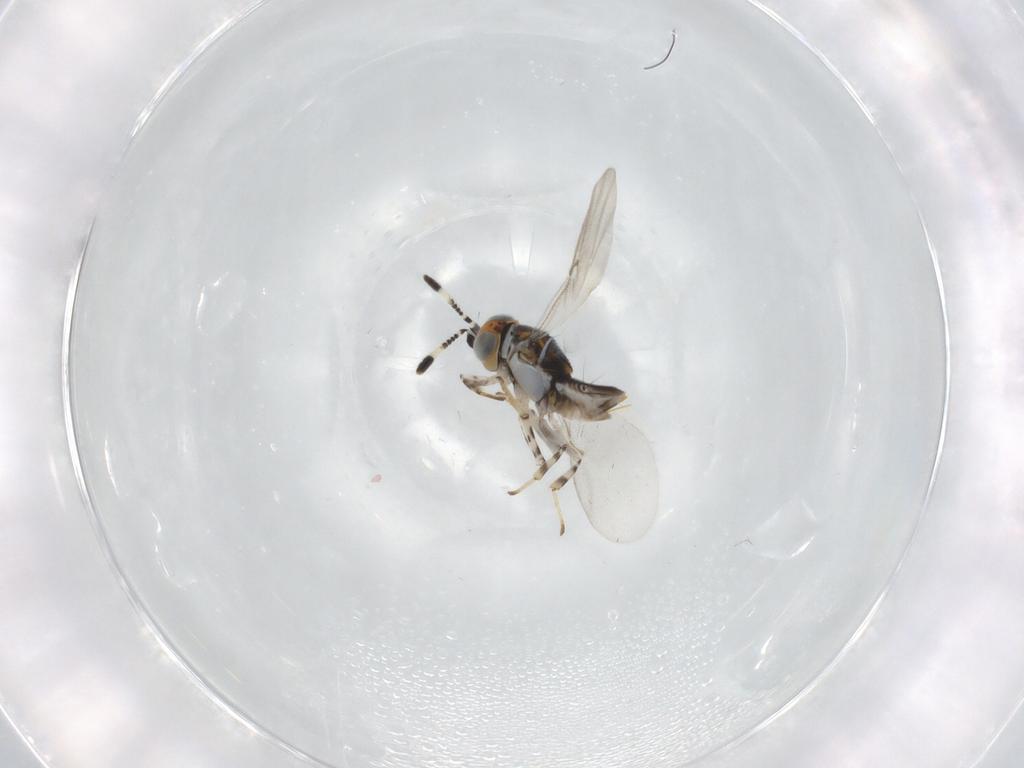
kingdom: Animalia
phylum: Arthropoda
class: Insecta
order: Hymenoptera
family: Encyrtidae
